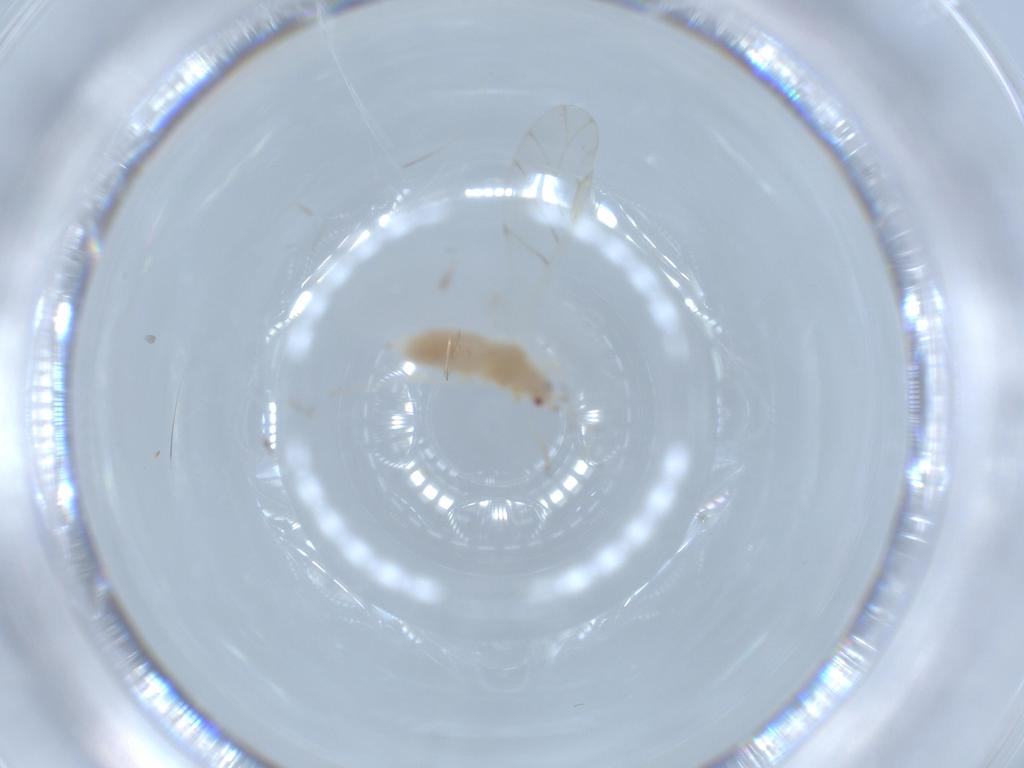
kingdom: Animalia
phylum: Arthropoda
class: Insecta
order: Hemiptera
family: Aphididae
